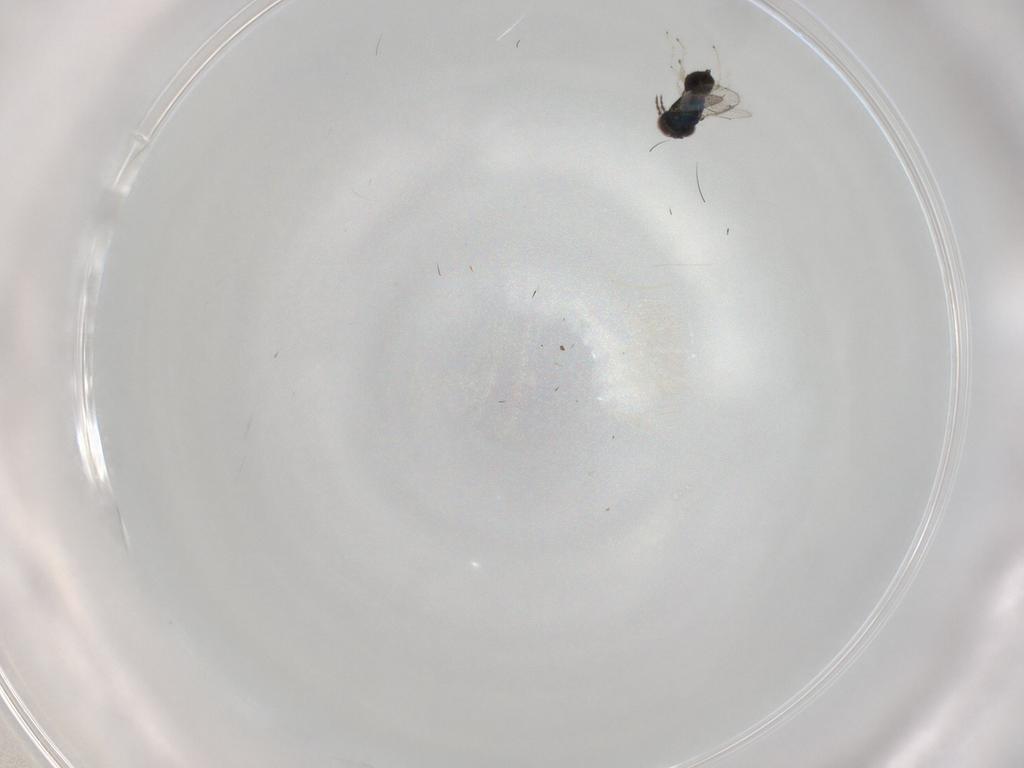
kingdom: Animalia
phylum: Arthropoda
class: Insecta
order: Hymenoptera
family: Eulophidae
